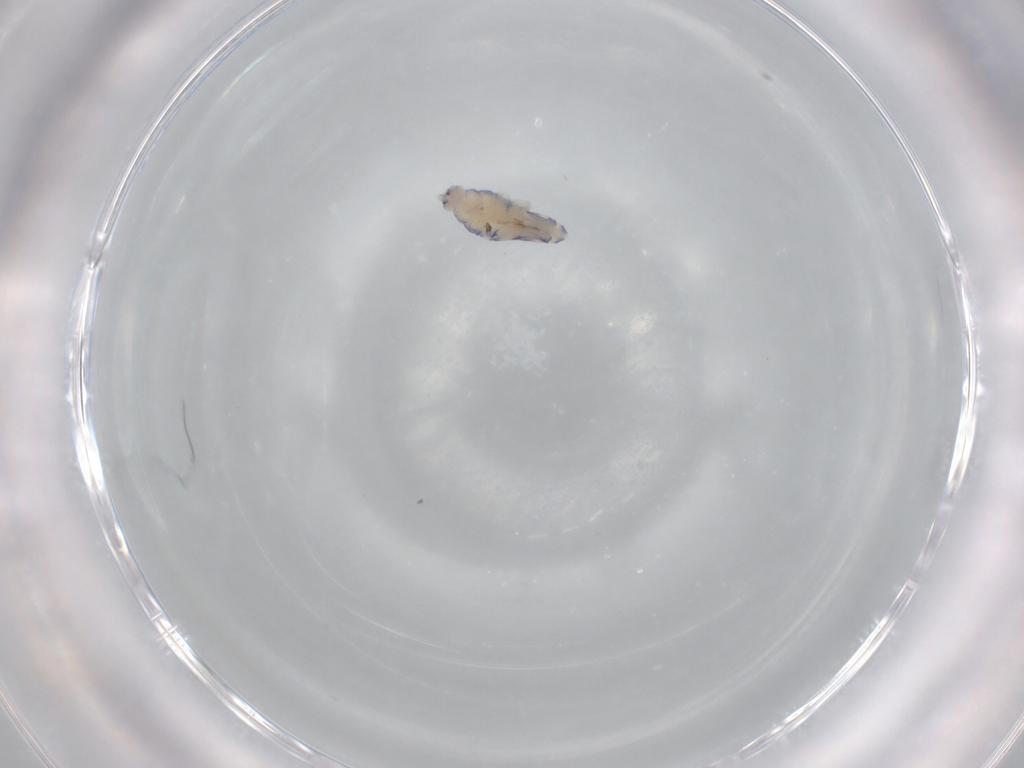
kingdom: Animalia
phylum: Arthropoda
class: Collembola
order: Entomobryomorpha
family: Entomobryidae
